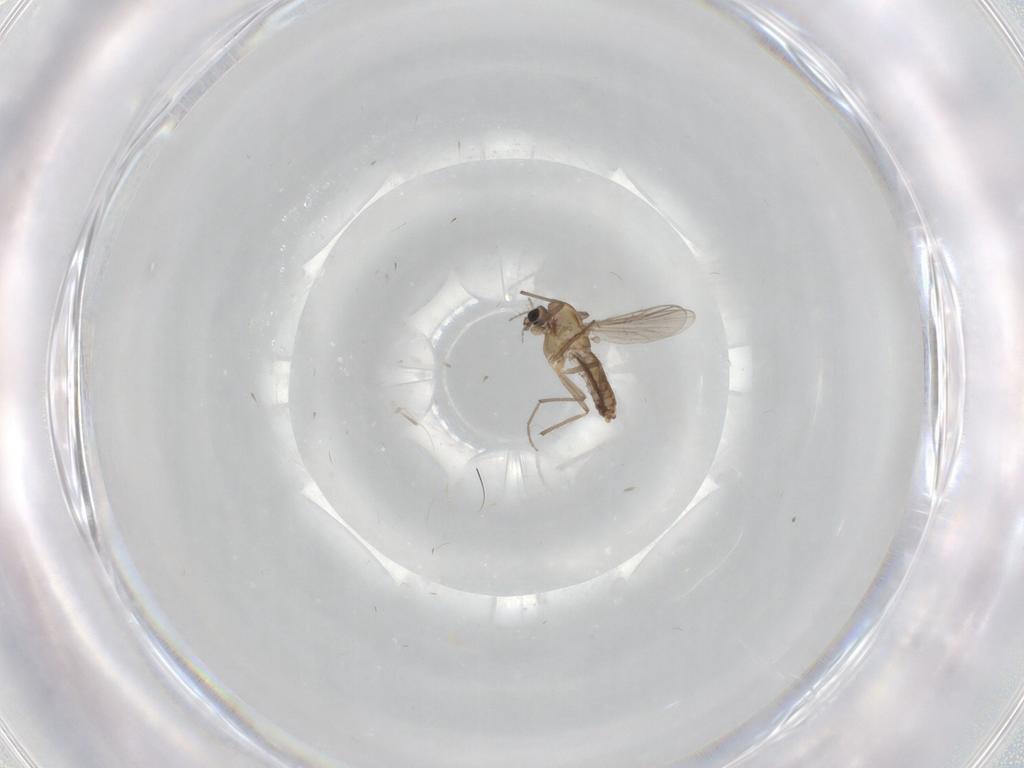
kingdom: Animalia
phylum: Arthropoda
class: Insecta
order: Diptera
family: Chironomidae
